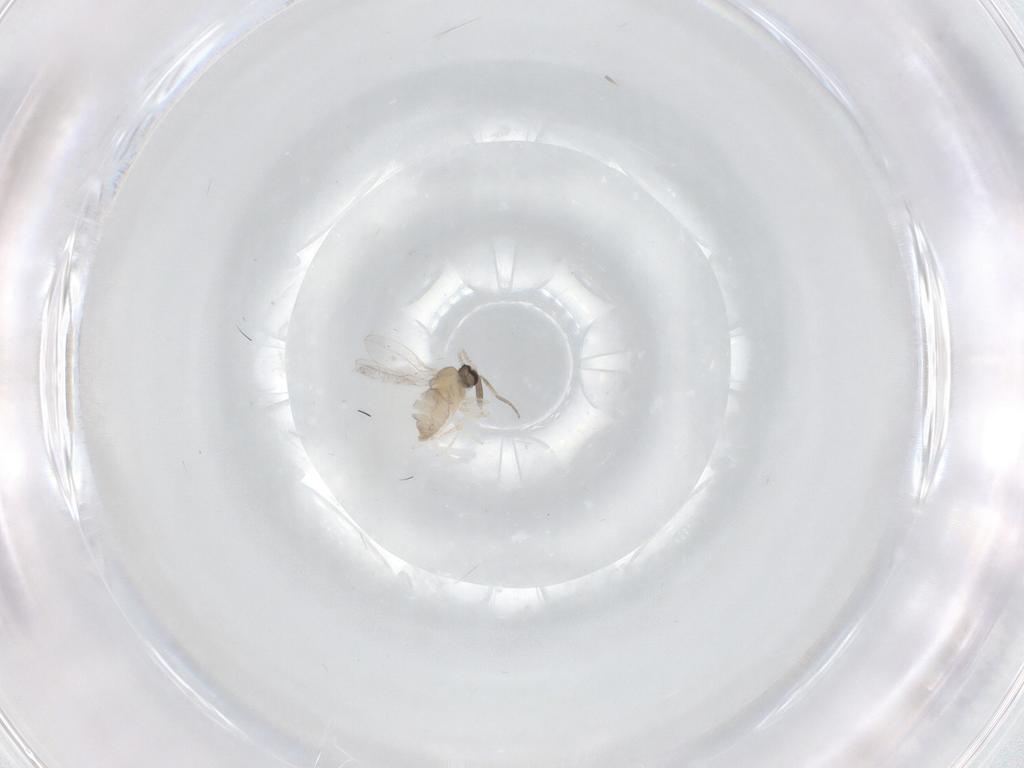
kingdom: Animalia
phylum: Arthropoda
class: Insecta
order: Diptera
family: Cecidomyiidae
